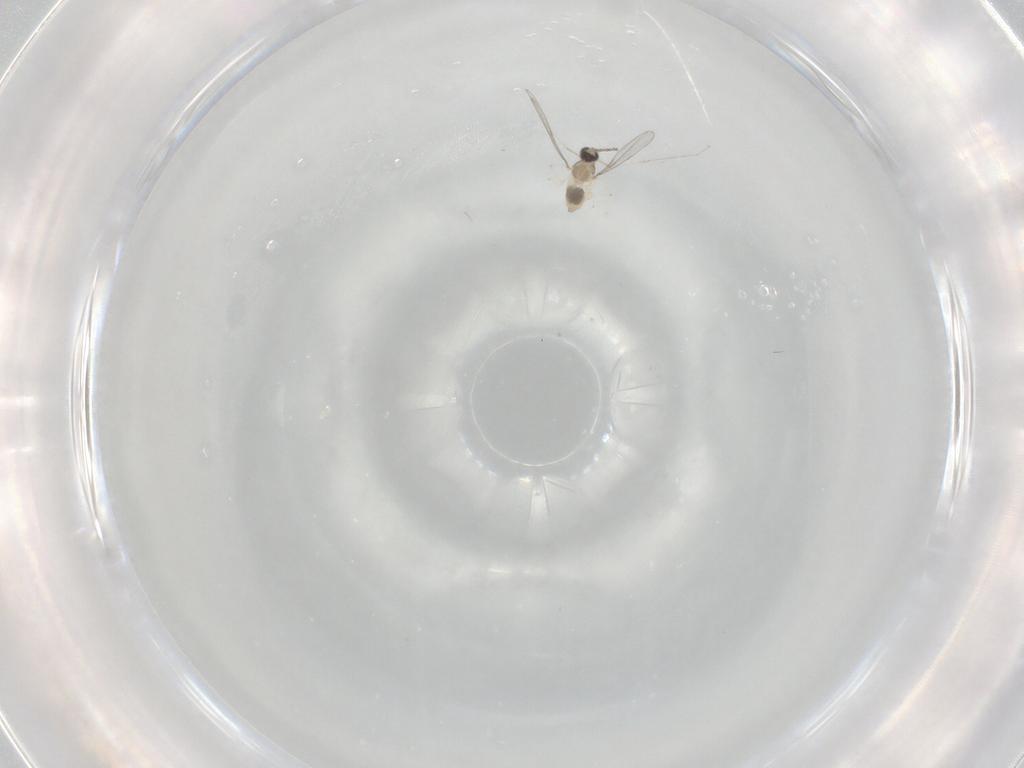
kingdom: Animalia
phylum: Arthropoda
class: Insecta
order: Diptera
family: Cecidomyiidae
